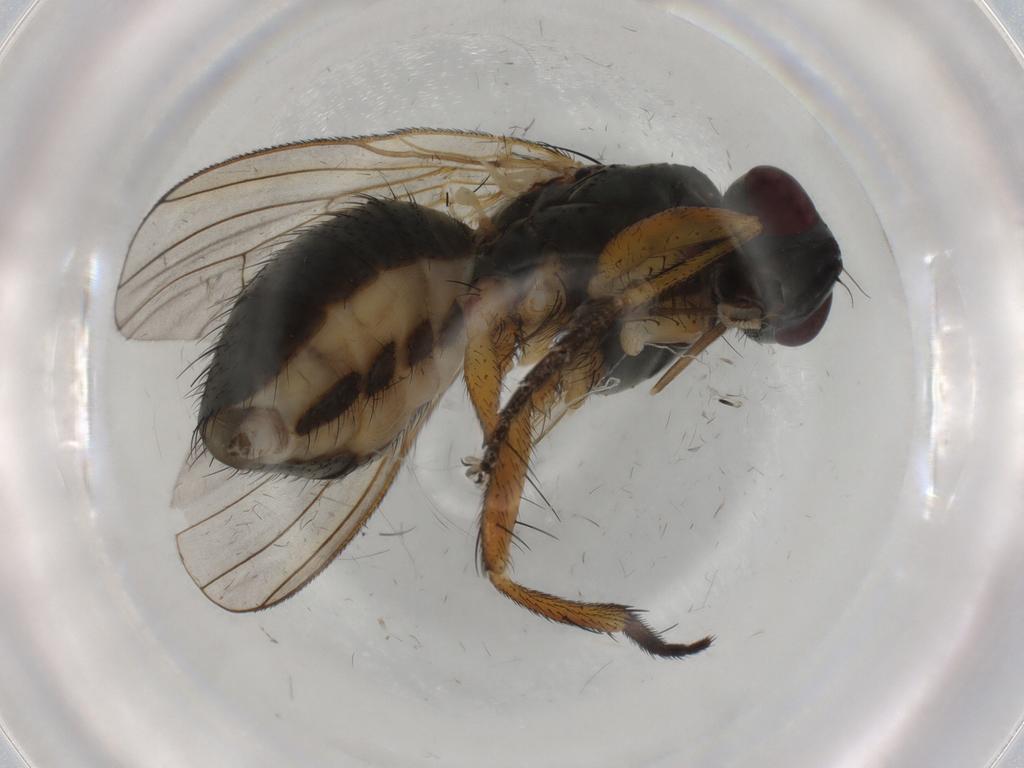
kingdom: Animalia
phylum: Arthropoda
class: Insecta
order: Diptera
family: Muscidae
